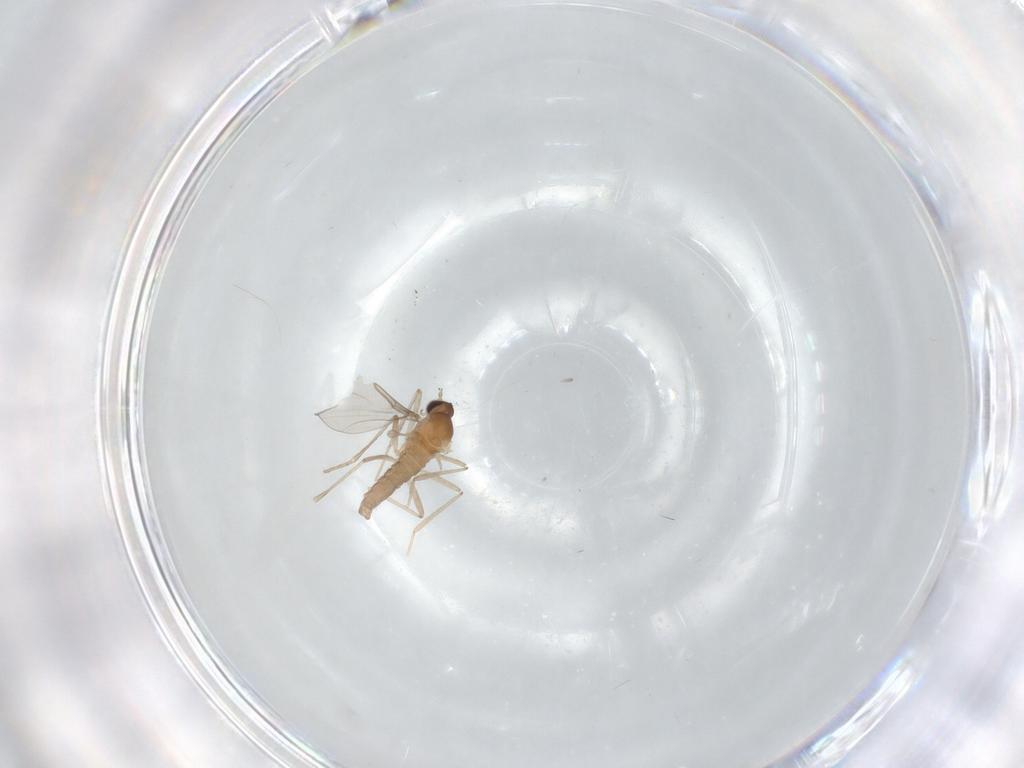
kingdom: Animalia
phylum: Arthropoda
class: Insecta
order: Diptera
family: Cecidomyiidae
